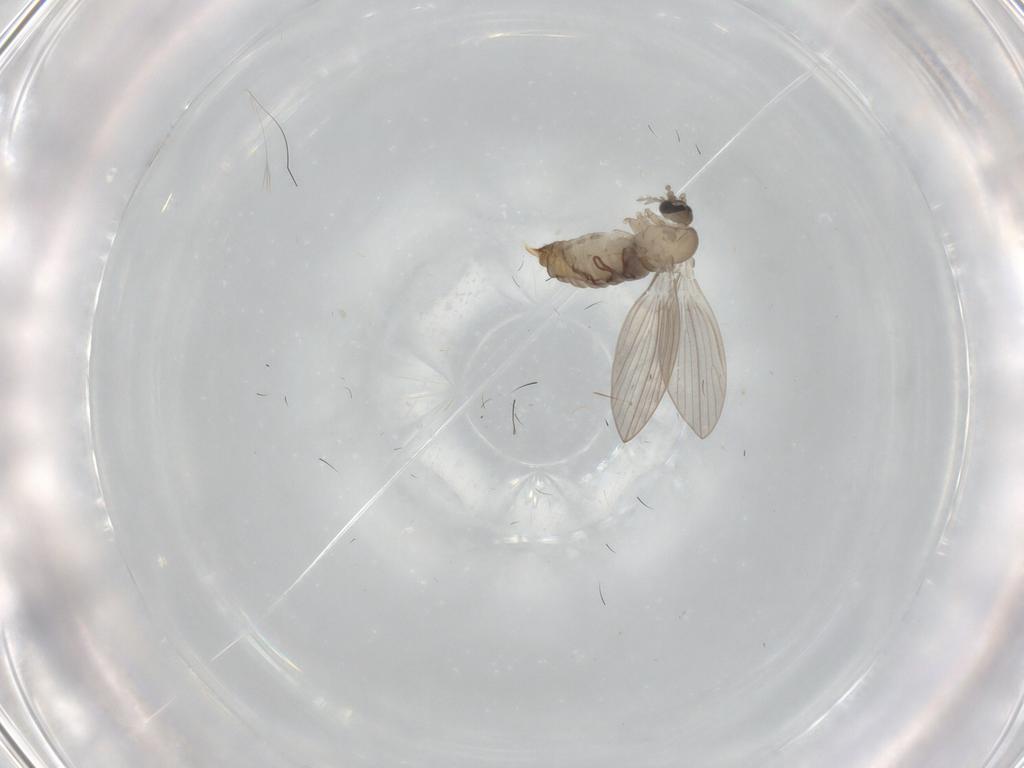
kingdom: Animalia
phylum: Arthropoda
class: Insecta
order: Diptera
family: Psychodidae
